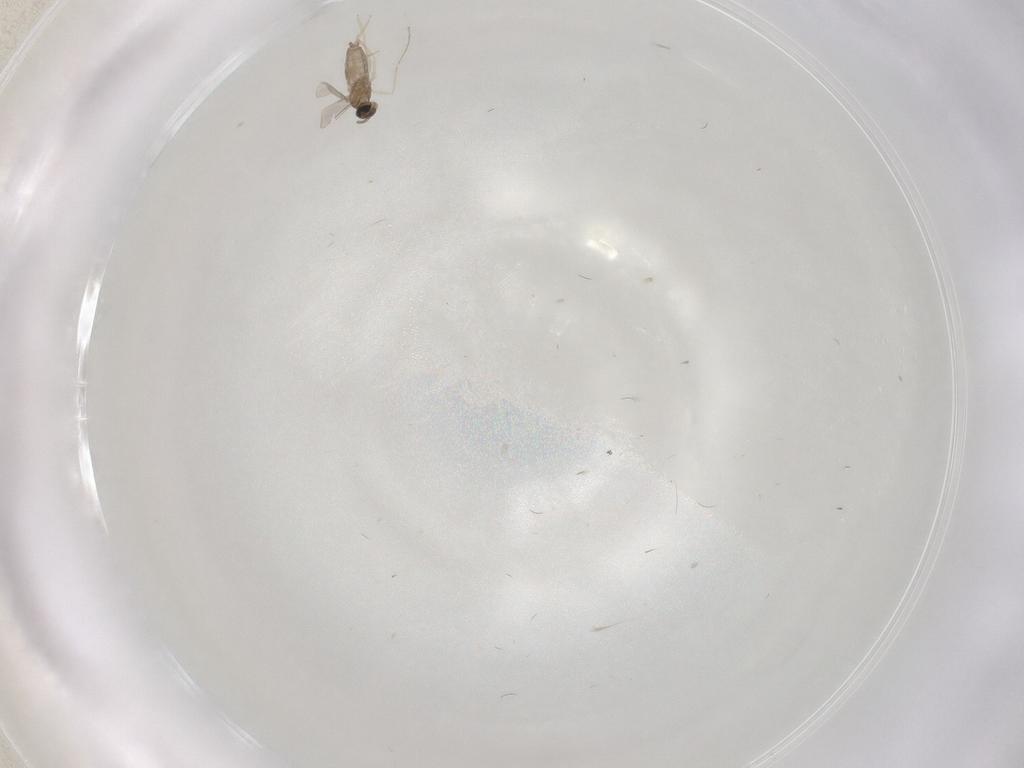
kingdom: Animalia
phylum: Arthropoda
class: Insecta
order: Diptera
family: Cecidomyiidae
